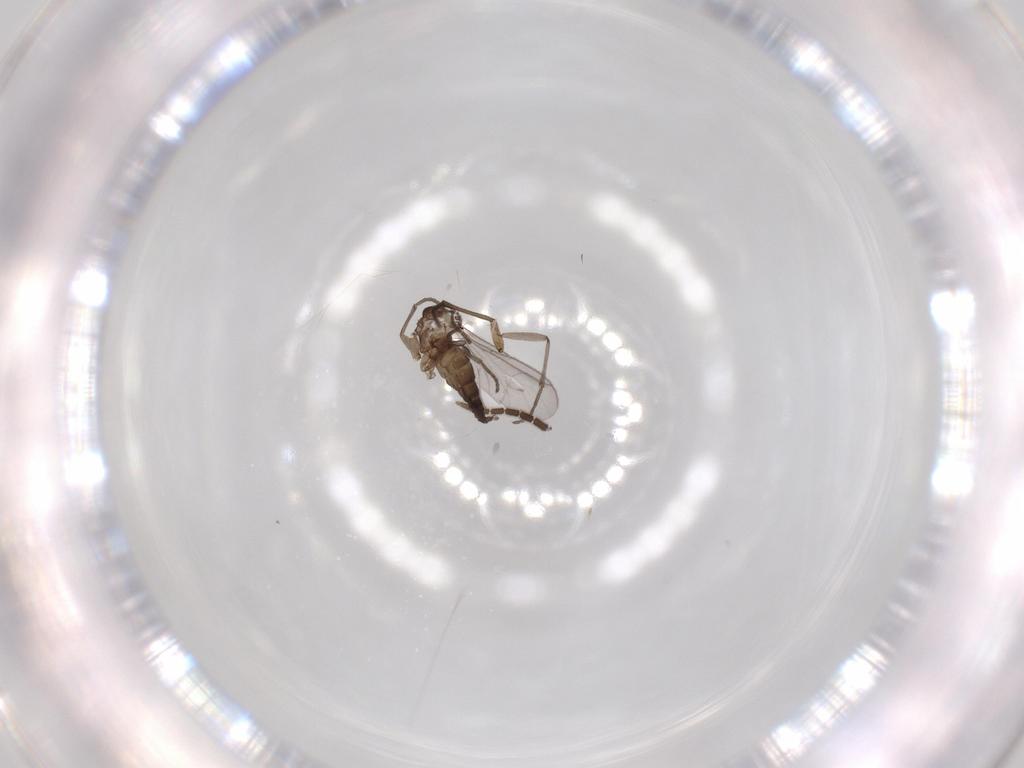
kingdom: Animalia
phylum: Arthropoda
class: Insecta
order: Diptera
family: Sciaridae
